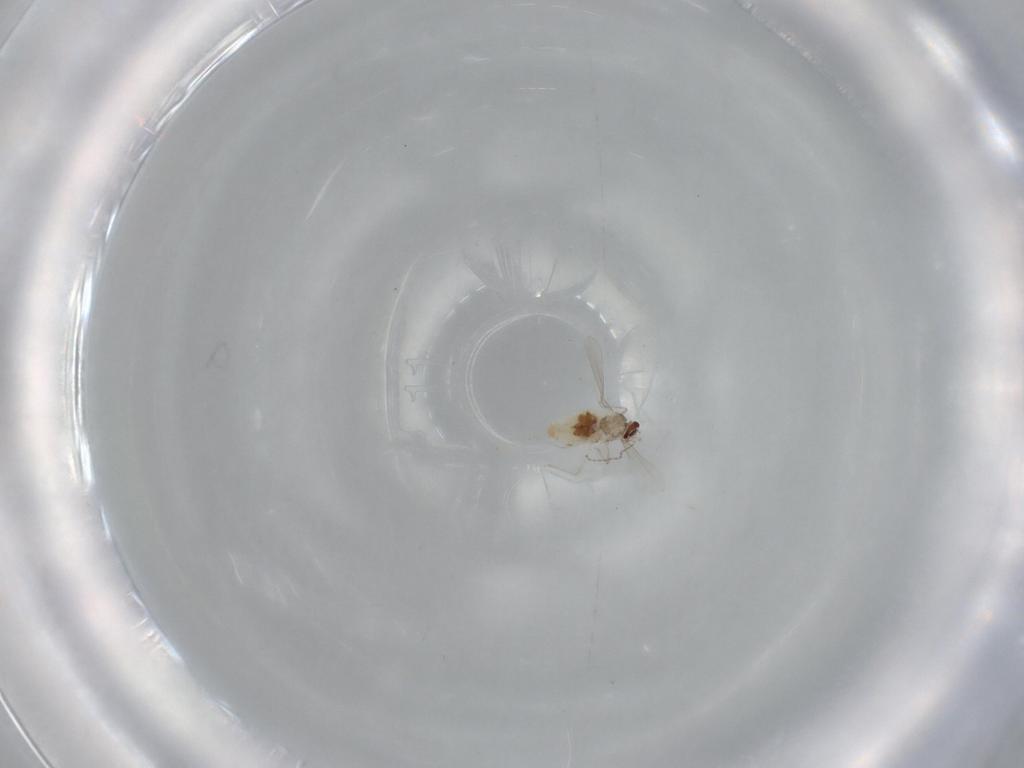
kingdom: Animalia
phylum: Arthropoda
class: Insecta
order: Diptera
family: Cecidomyiidae
